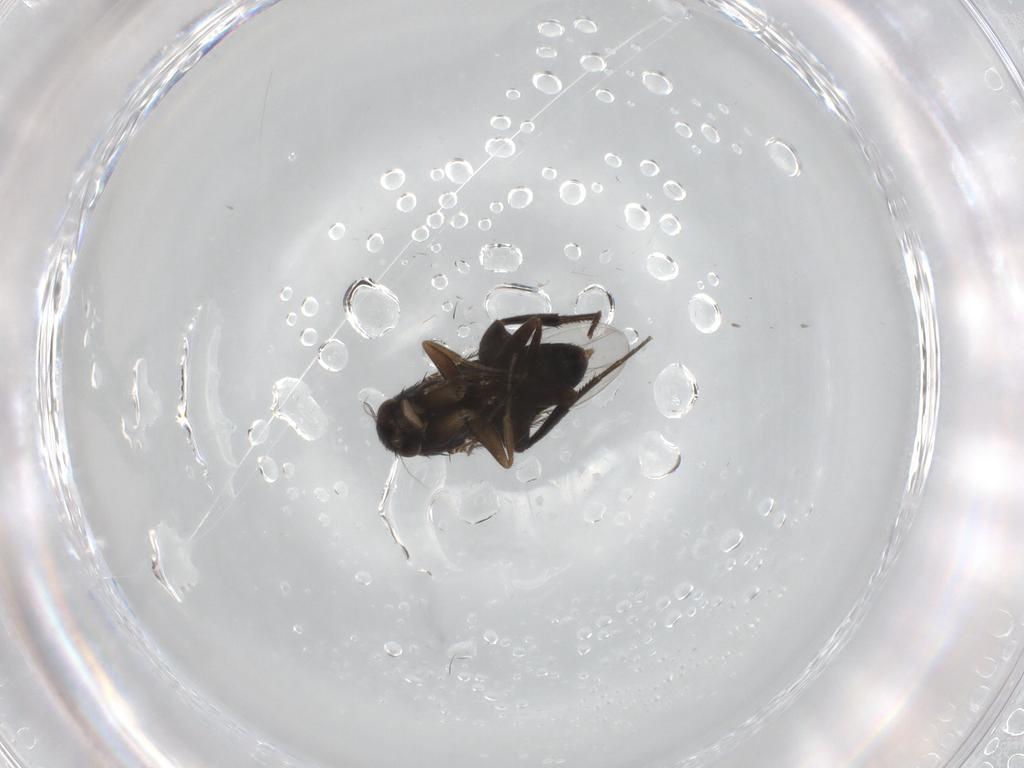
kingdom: Animalia
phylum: Arthropoda
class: Insecta
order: Diptera
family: Phoridae
